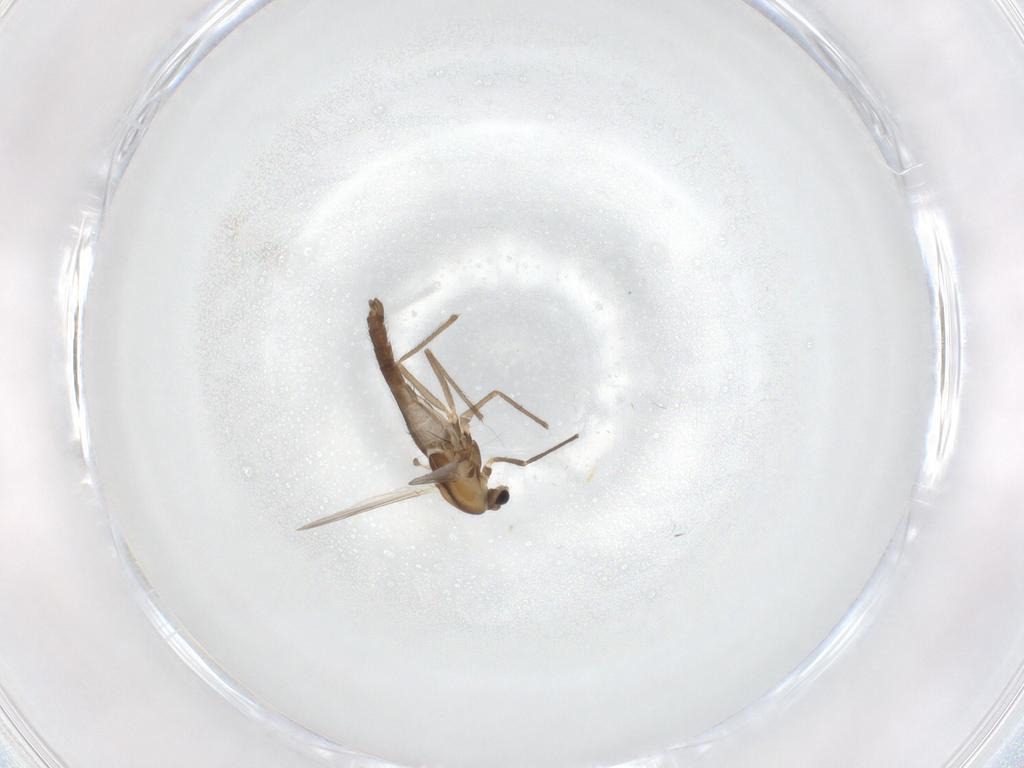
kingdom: Animalia
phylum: Arthropoda
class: Insecta
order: Diptera
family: Chironomidae
